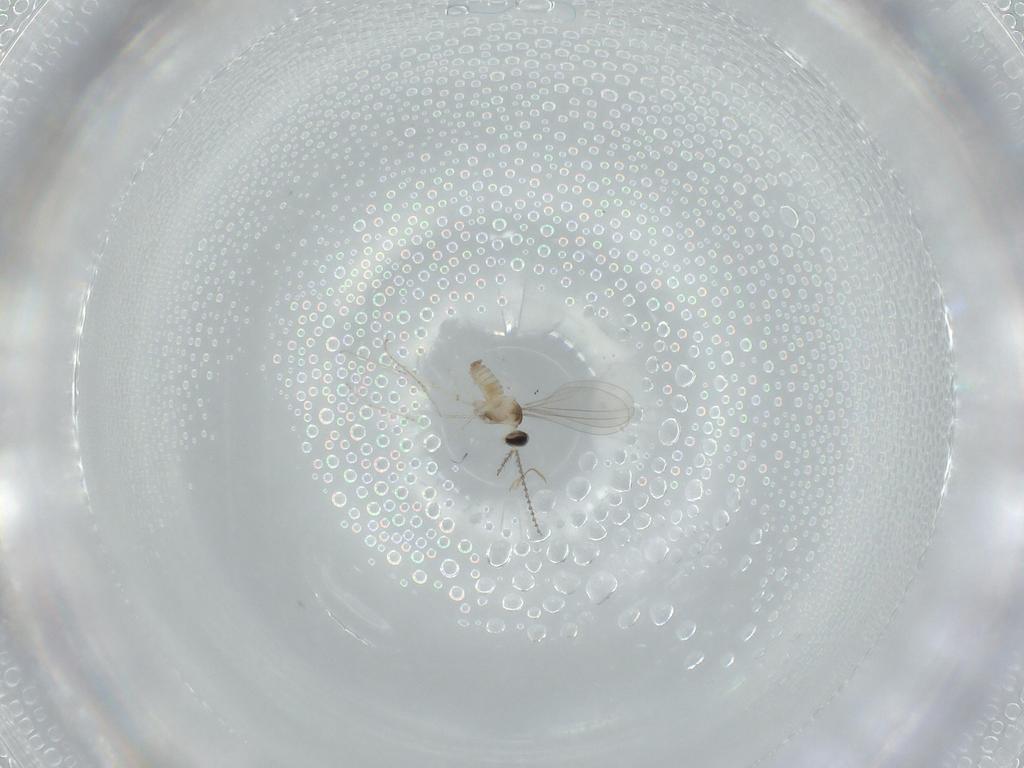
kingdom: Animalia
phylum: Arthropoda
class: Insecta
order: Diptera
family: Cecidomyiidae
